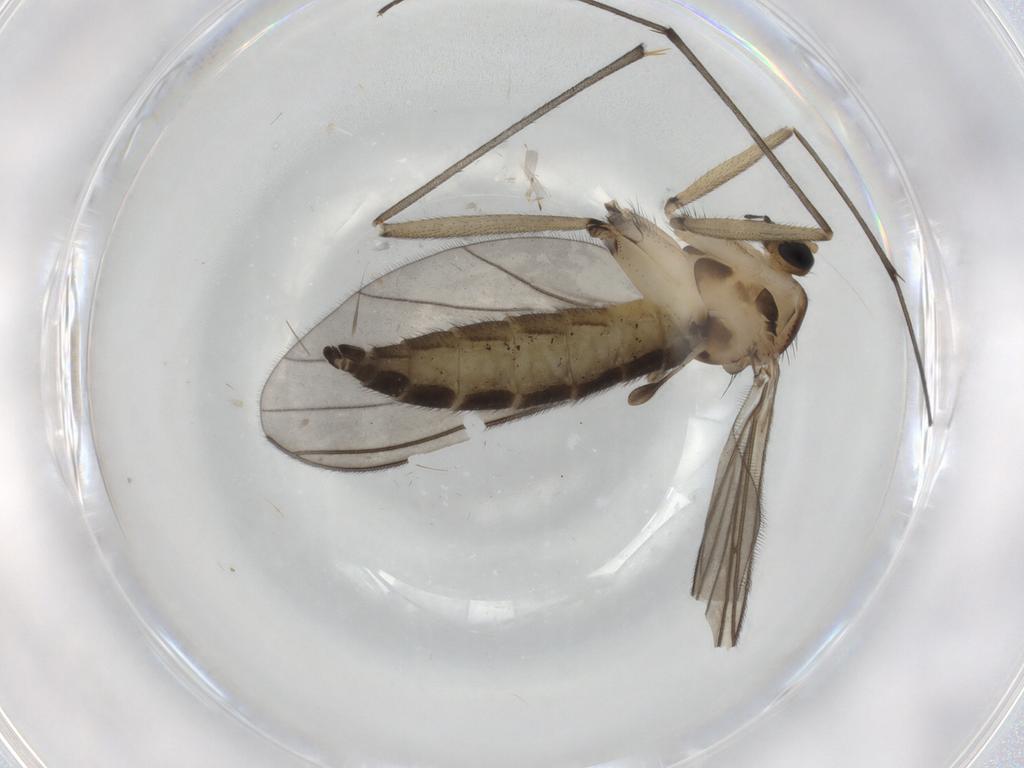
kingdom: Animalia
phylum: Arthropoda
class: Insecta
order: Diptera
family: Sciaridae
